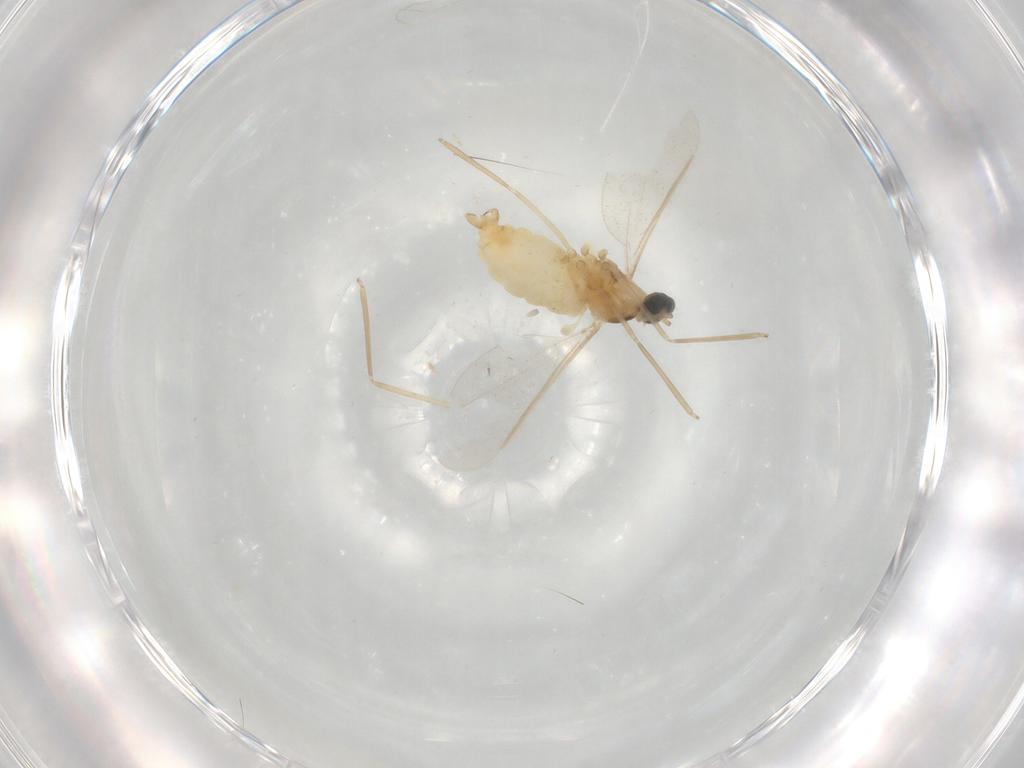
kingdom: Animalia
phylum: Arthropoda
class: Insecta
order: Diptera
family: Cecidomyiidae
